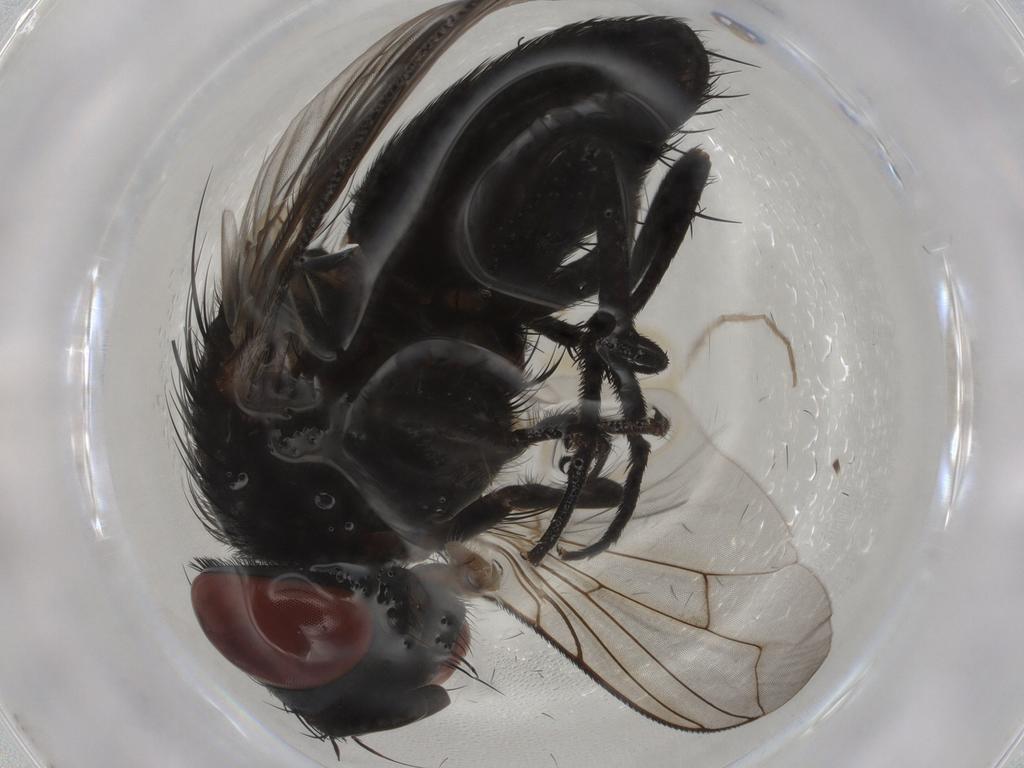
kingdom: Animalia
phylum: Arthropoda
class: Insecta
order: Diptera
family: Sarcophagidae
